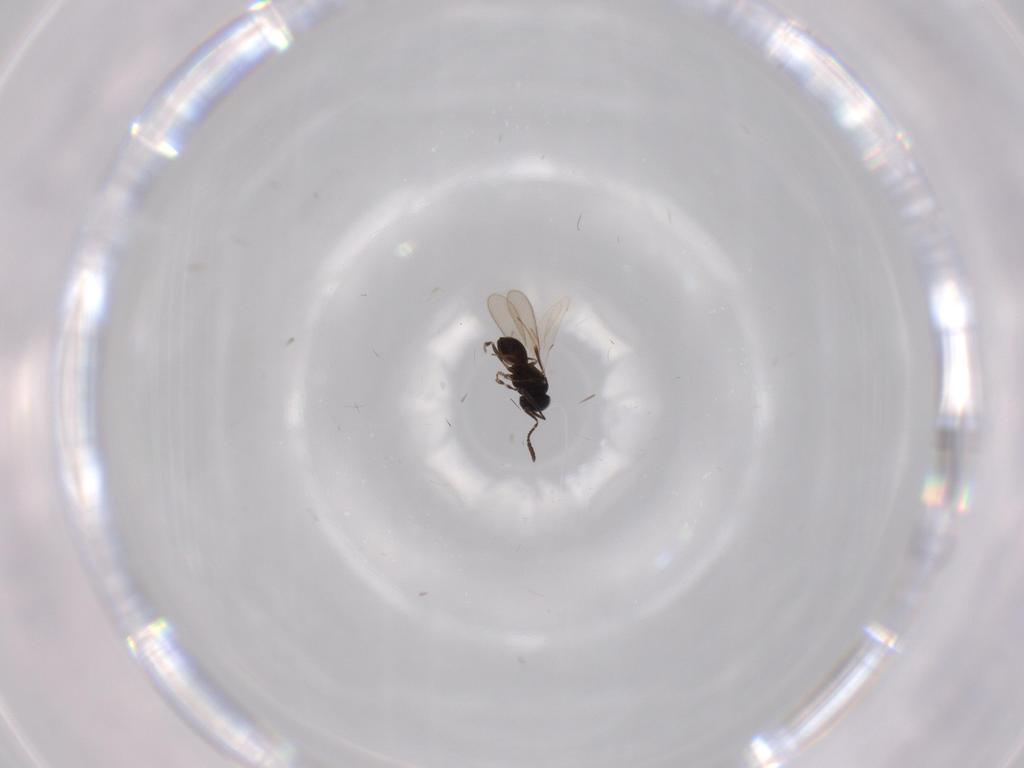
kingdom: Animalia
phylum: Arthropoda
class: Insecta
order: Hymenoptera
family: Scelionidae
